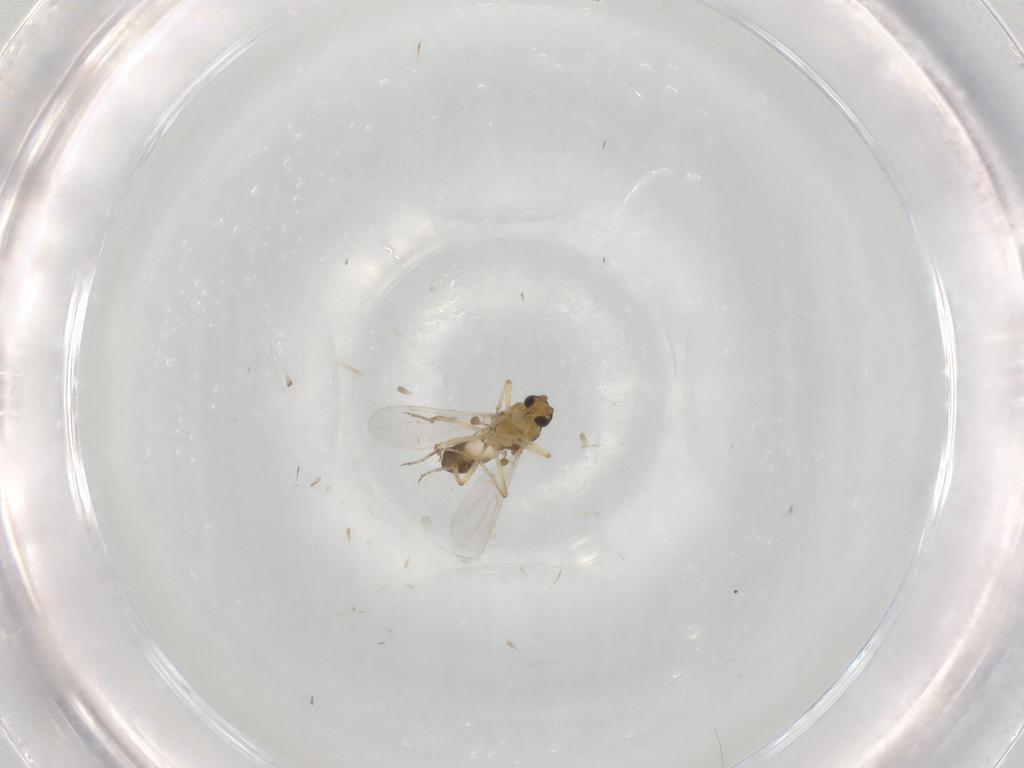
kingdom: Animalia
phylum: Arthropoda
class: Insecta
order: Diptera
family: Ceratopogonidae
